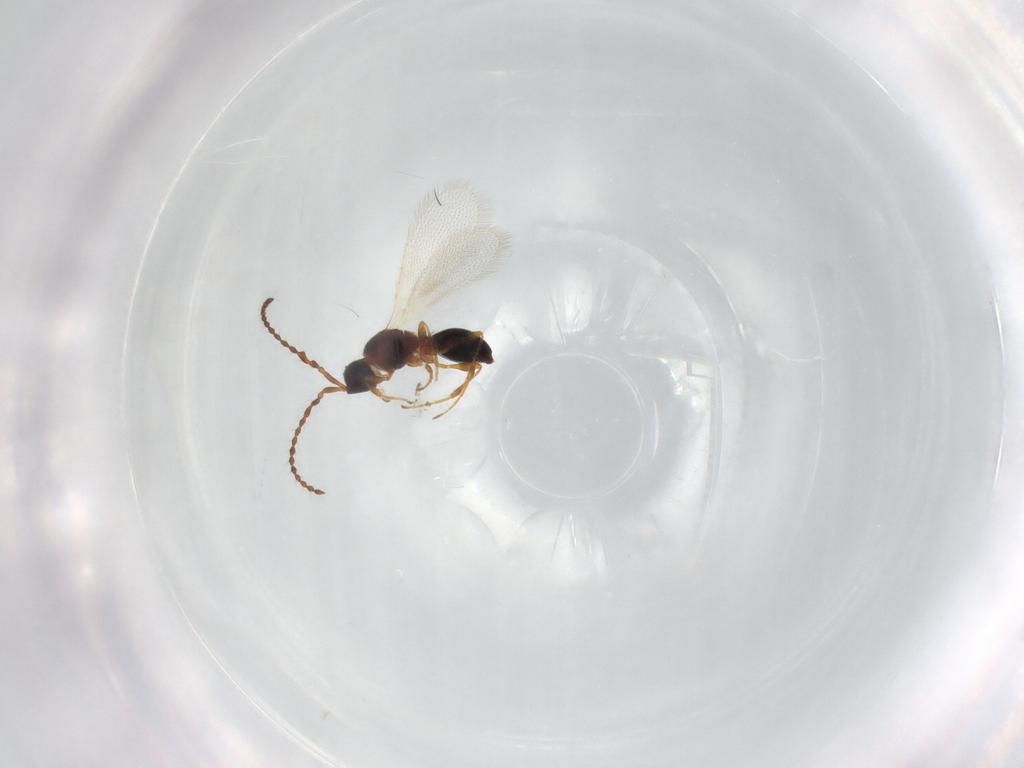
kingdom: Animalia
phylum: Arthropoda
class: Insecta
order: Hymenoptera
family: Diapriidae
